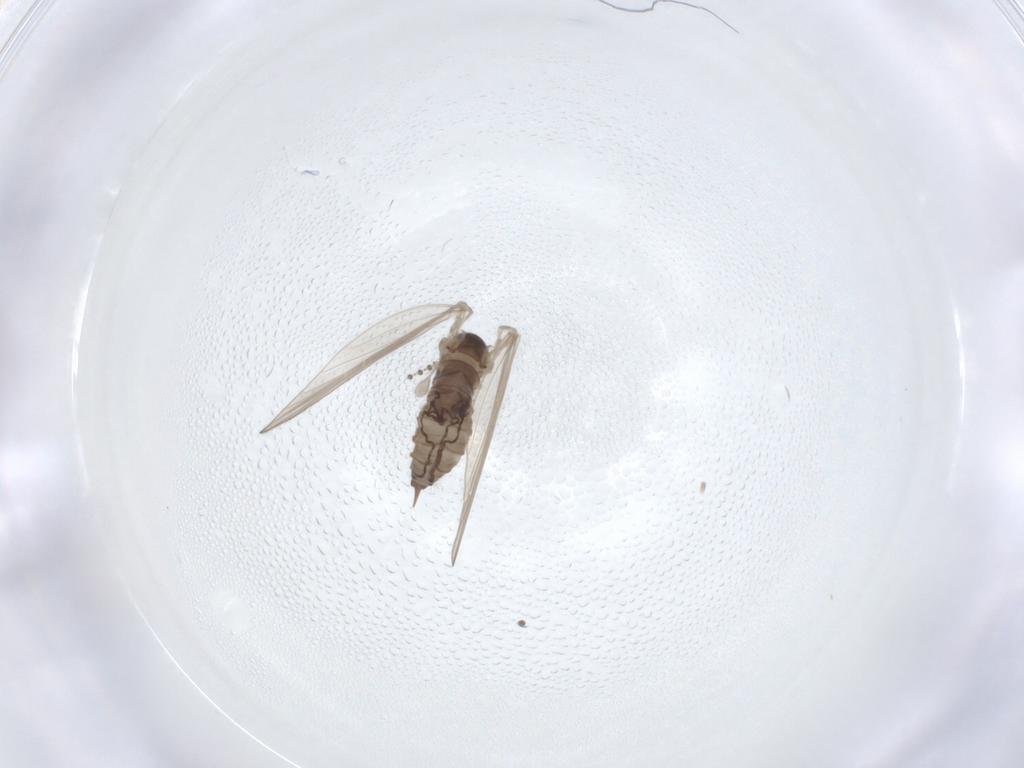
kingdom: Animalia
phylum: Arthropoda
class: Insecta
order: Diptera
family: Psychodidae
